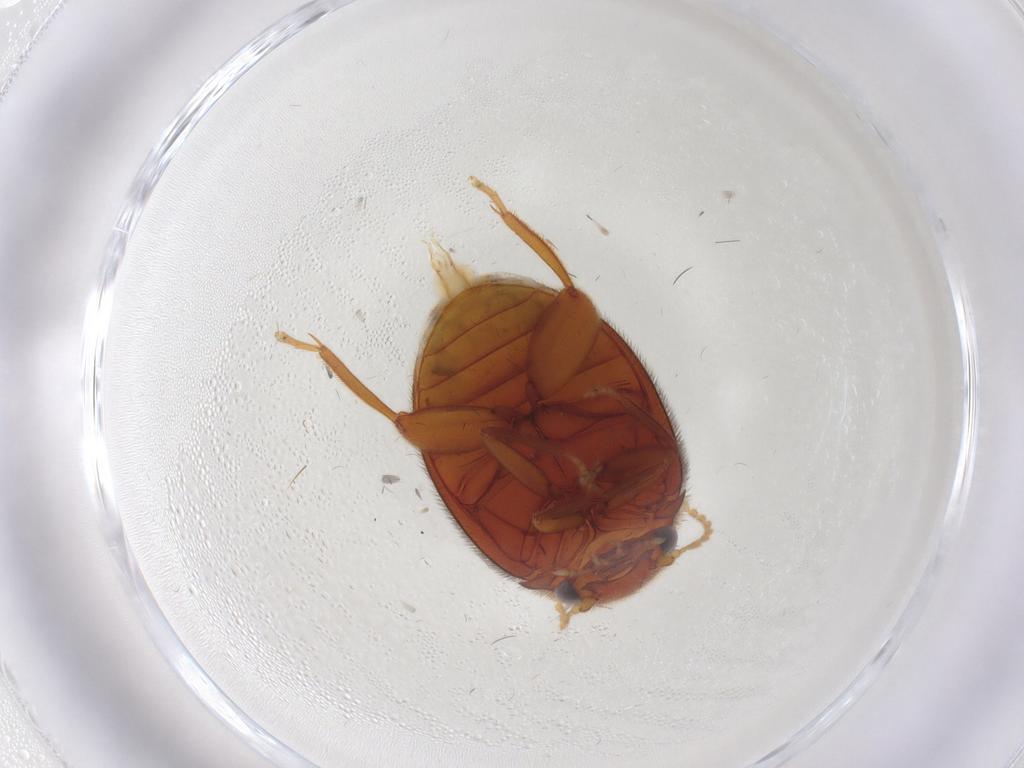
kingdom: Animalia
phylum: Arthropoda
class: Insecta
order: Coleoptera
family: Scirtidae
